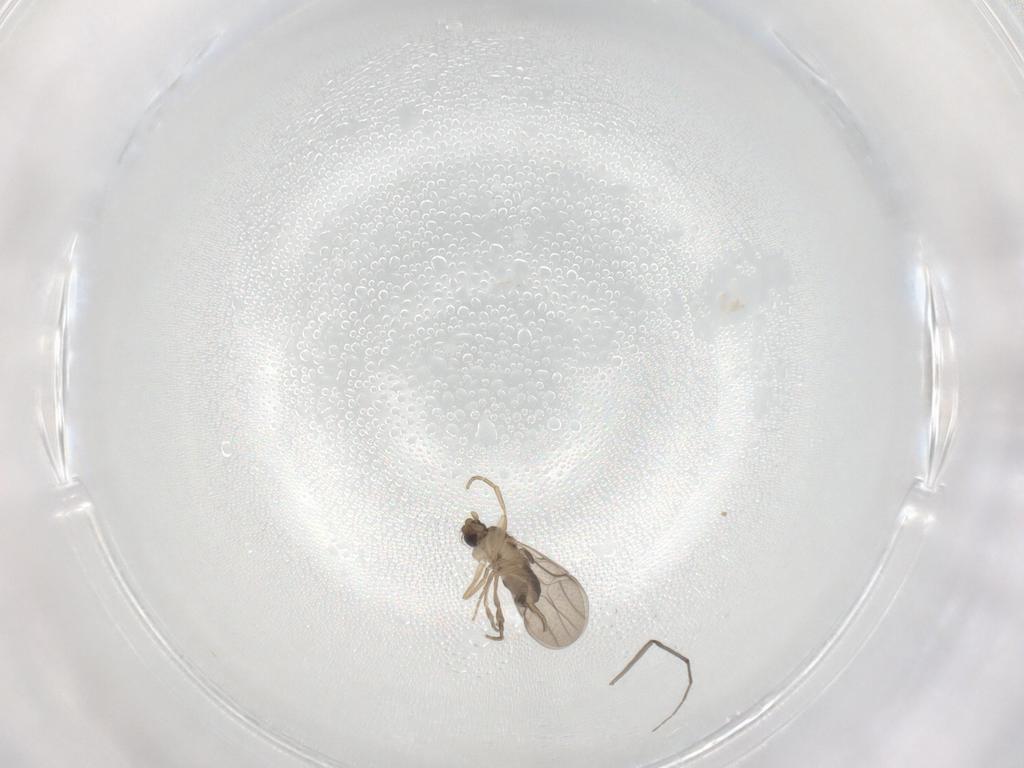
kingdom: Animalia
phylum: Arthropoda
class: Insecta
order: Diptera
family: Phoridae
